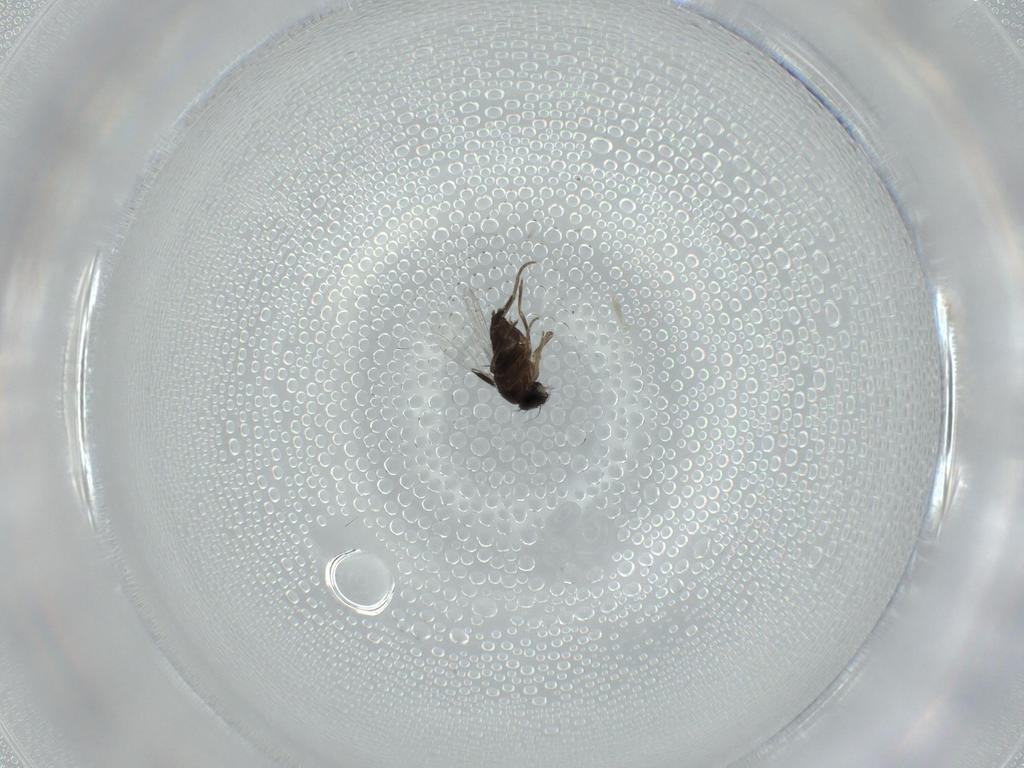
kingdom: Animalia
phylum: Arthropoda
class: Insecta
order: Diptera
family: Phoridae
